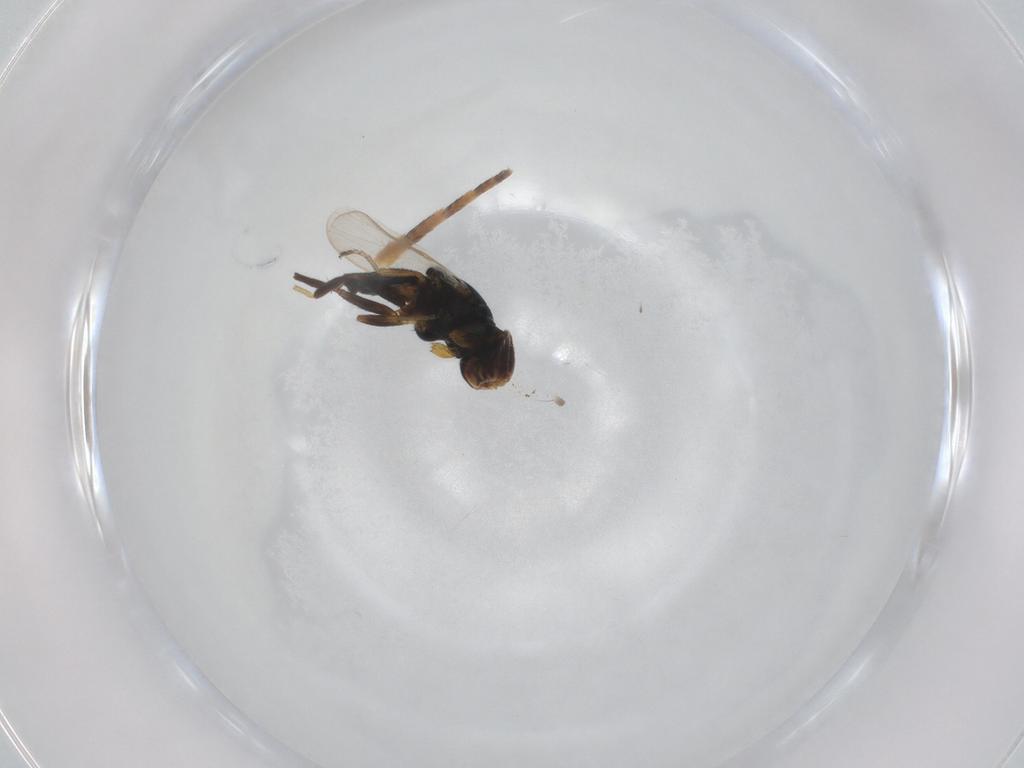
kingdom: Animalia
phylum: Arthropoda
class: Insecta
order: Diptera
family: Chloropidae
